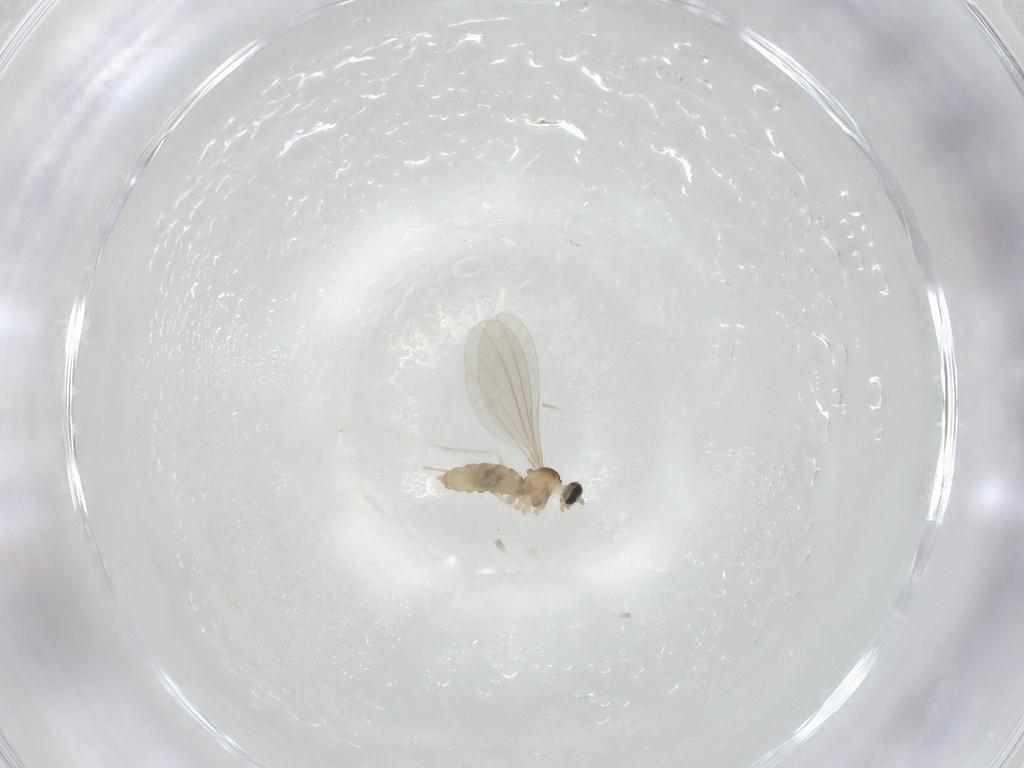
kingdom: Animalia
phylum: Arthropoda
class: Insecta
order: Diptera
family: Cecidomyiidae
